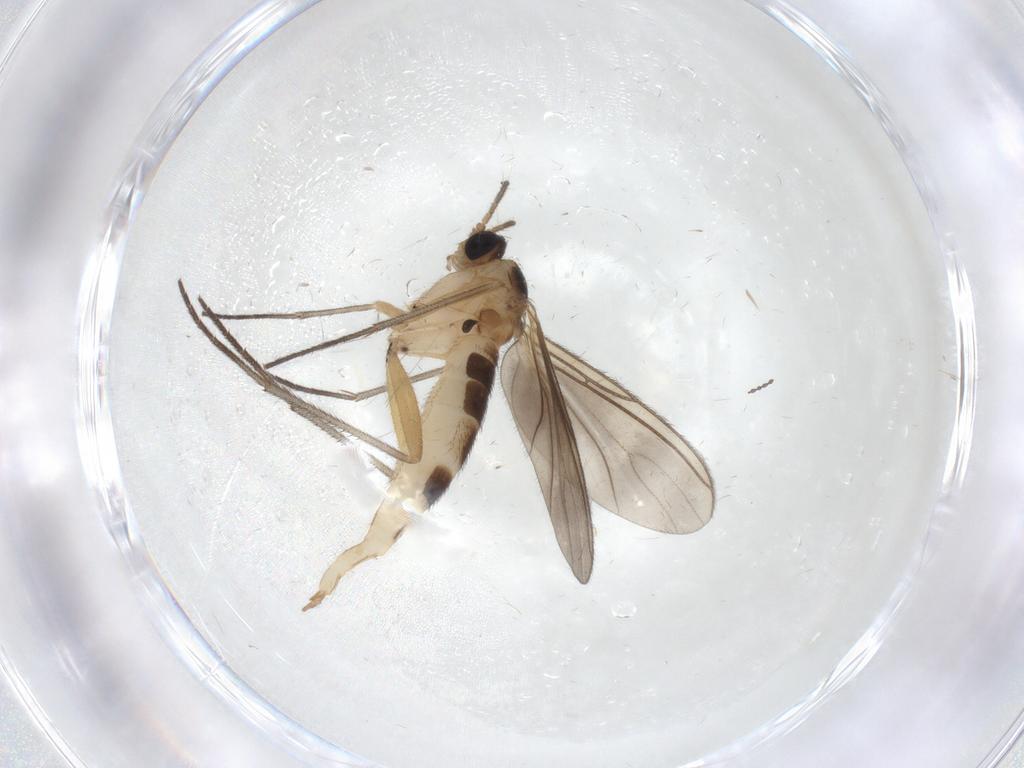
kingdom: Animalia
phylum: Arthropoda
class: Insecta
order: Diptera
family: Sciaridae
